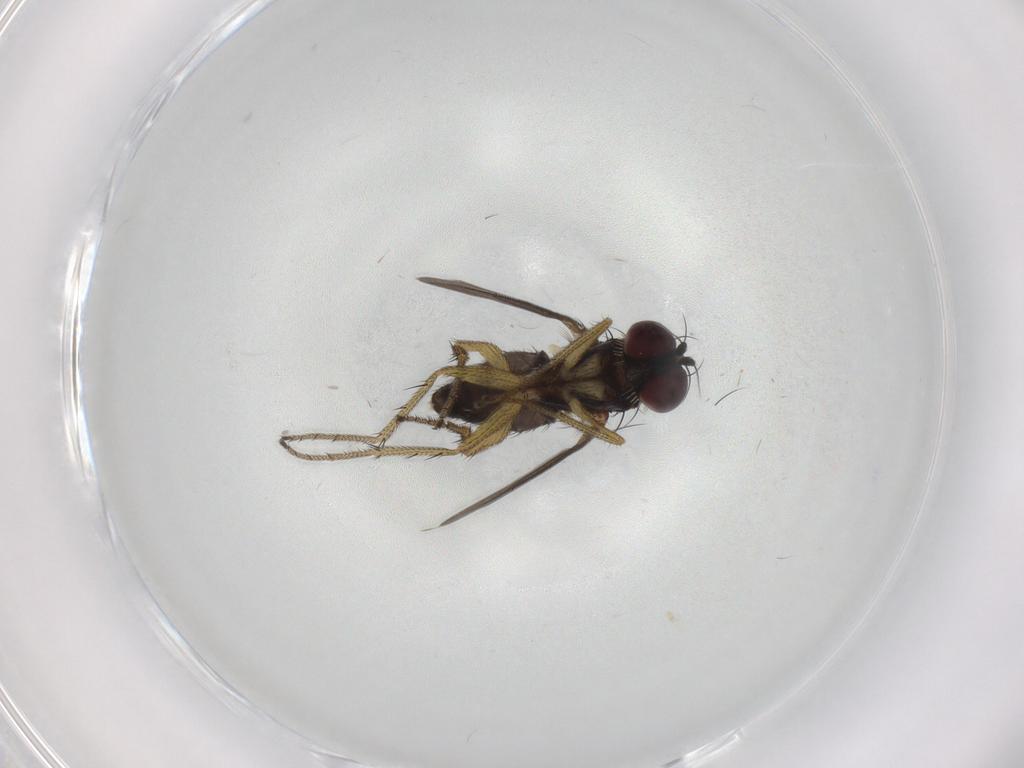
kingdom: Animalia
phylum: Arthropoda
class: Insecta
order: Diptera
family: Dolichopodidae
